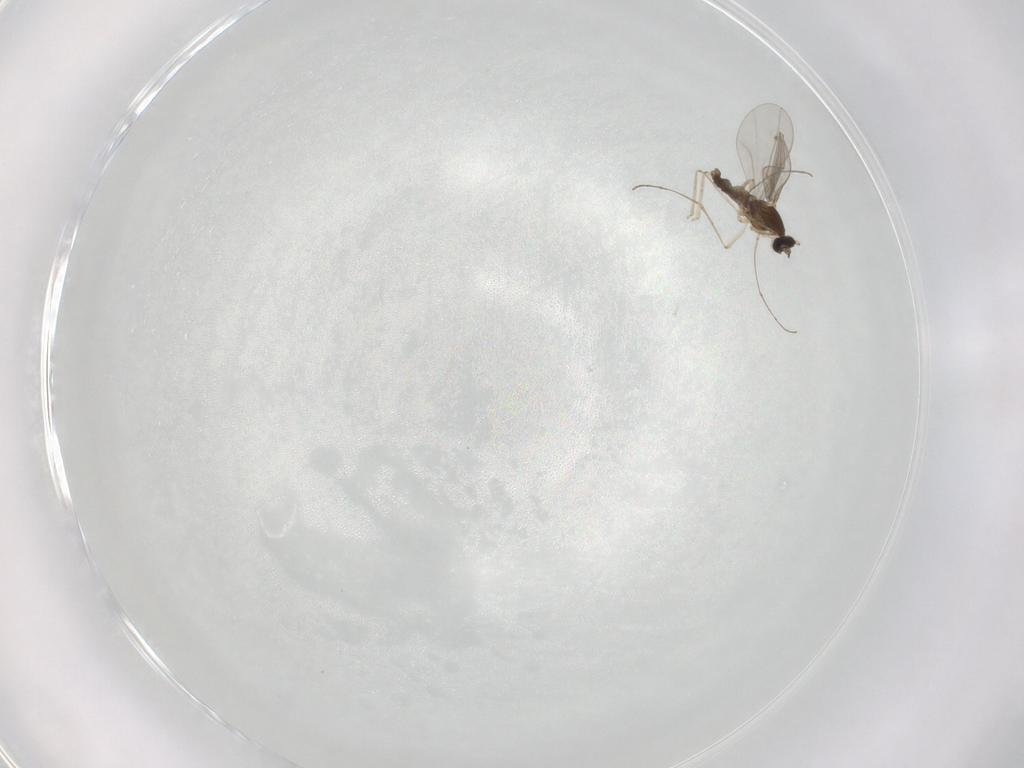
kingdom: Animalia
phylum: Arthropoda
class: Insecta
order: Diptera
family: Cecidomyiidae
